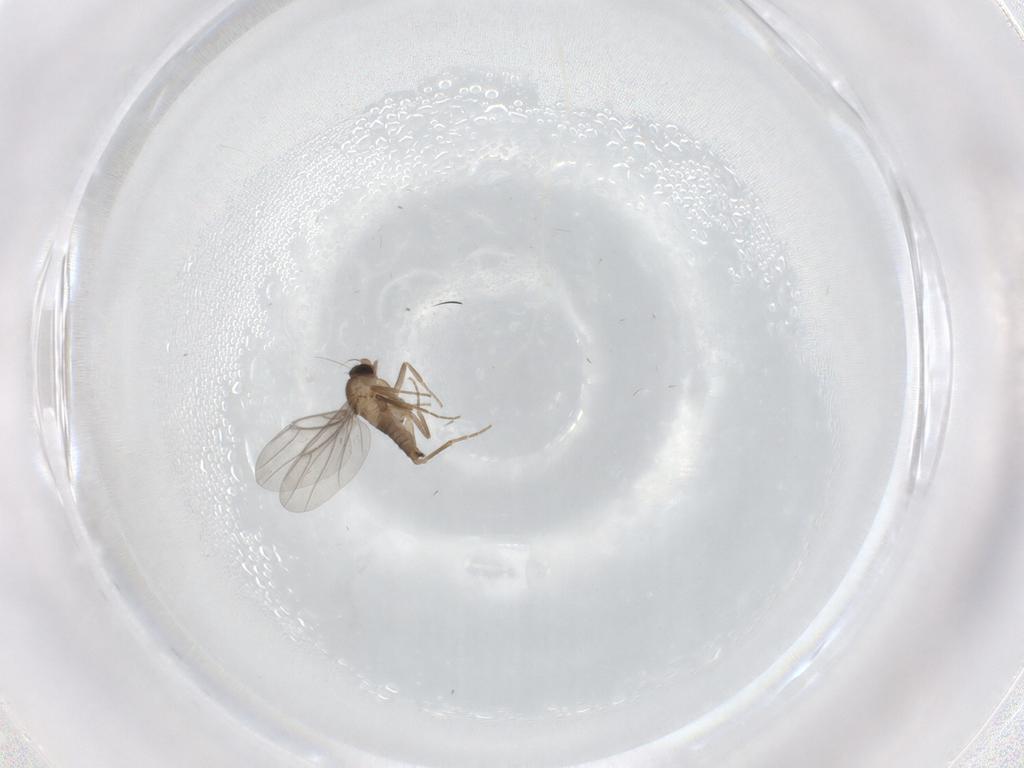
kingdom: Animalia
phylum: Arthropoda
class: Insecta
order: Diptera
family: Cecidomyiidae
